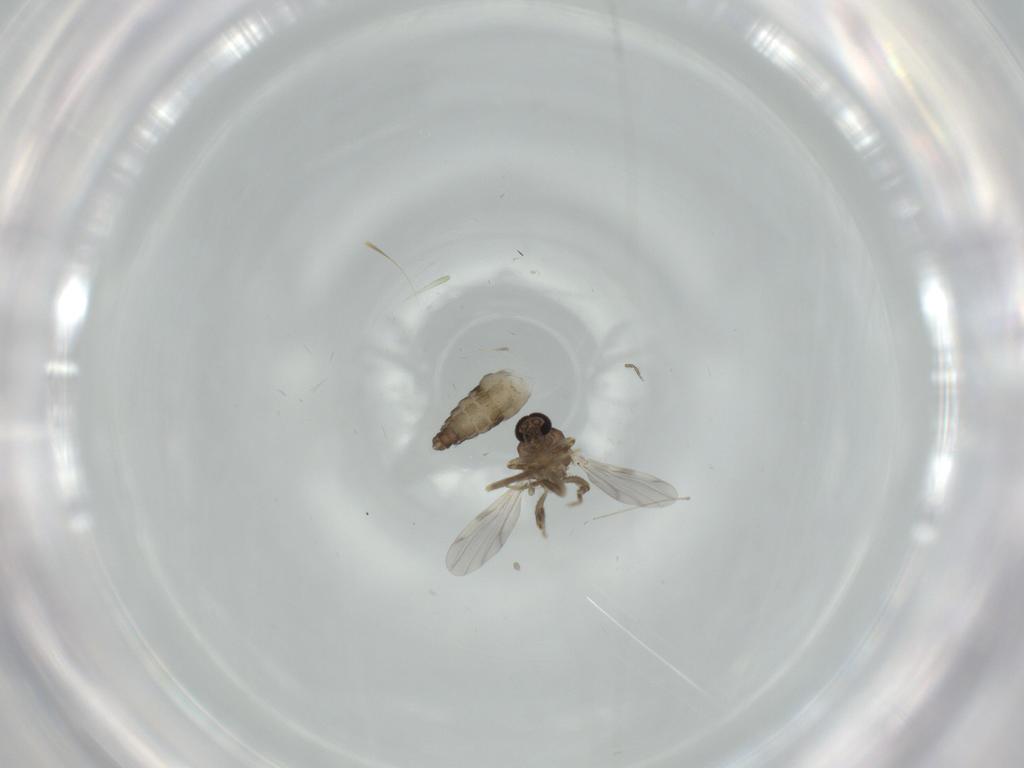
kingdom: Animalia
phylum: Arthropoda
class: Insecta
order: Diptera
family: Ceratopogonidae
